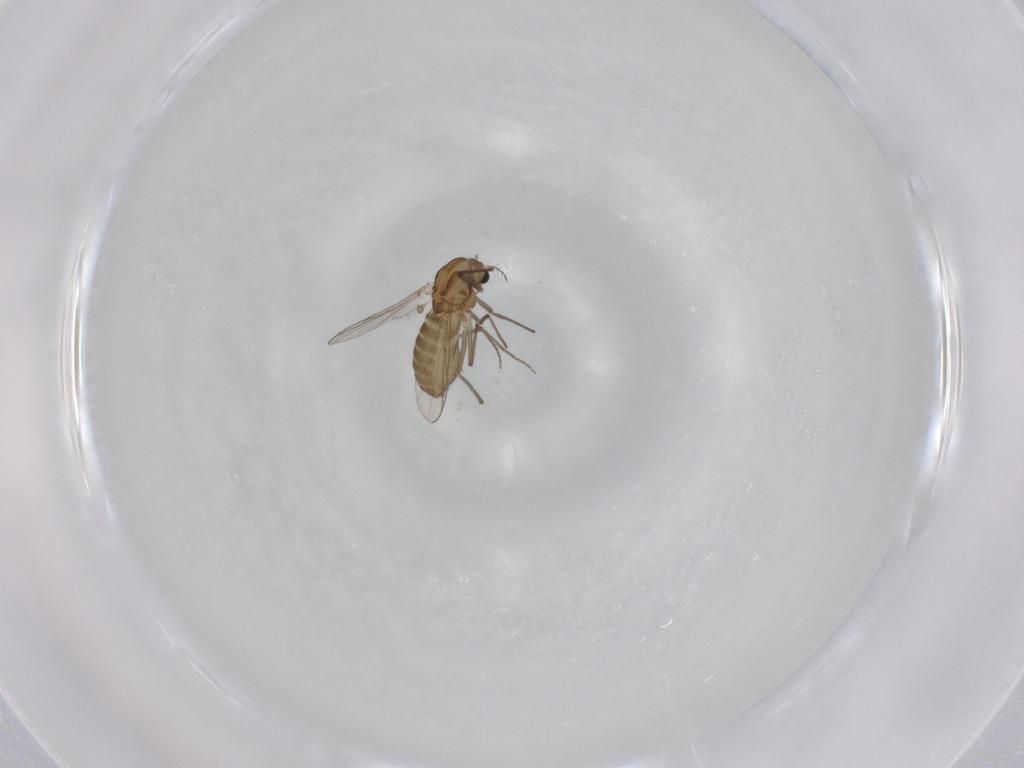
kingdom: Animalia
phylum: Arthropoda
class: Insecta
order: Diptera
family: Chironomidae
